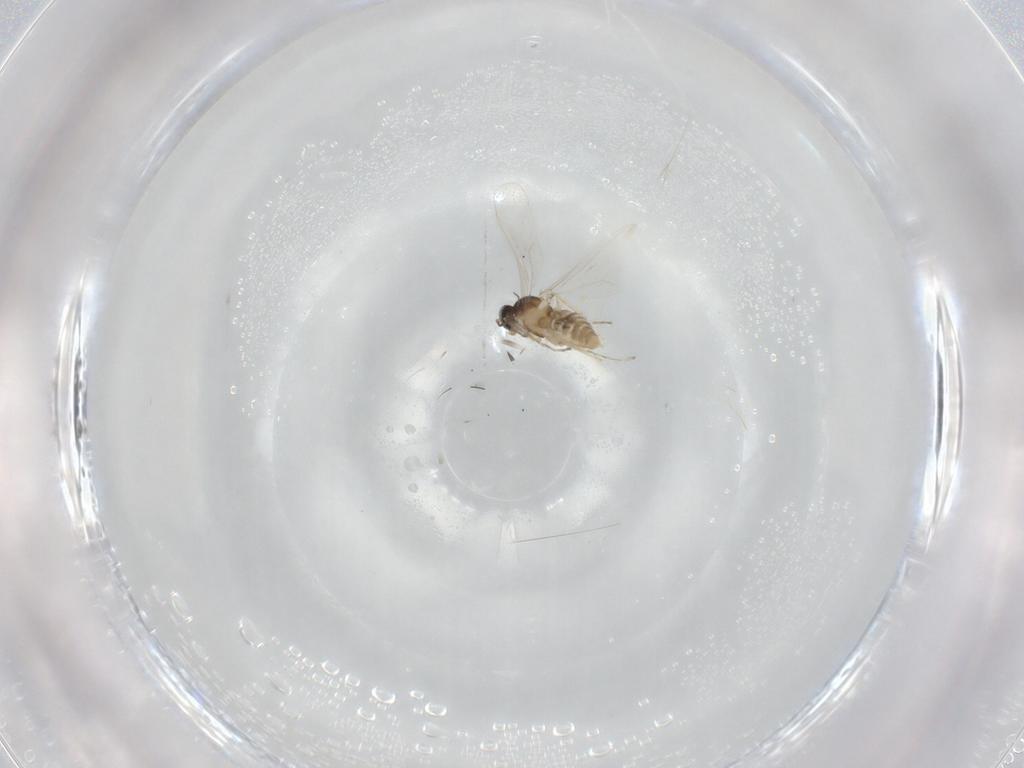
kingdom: Animalia
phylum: Arthropoda
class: Insecta
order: Diptera
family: Cecidomyiidae
